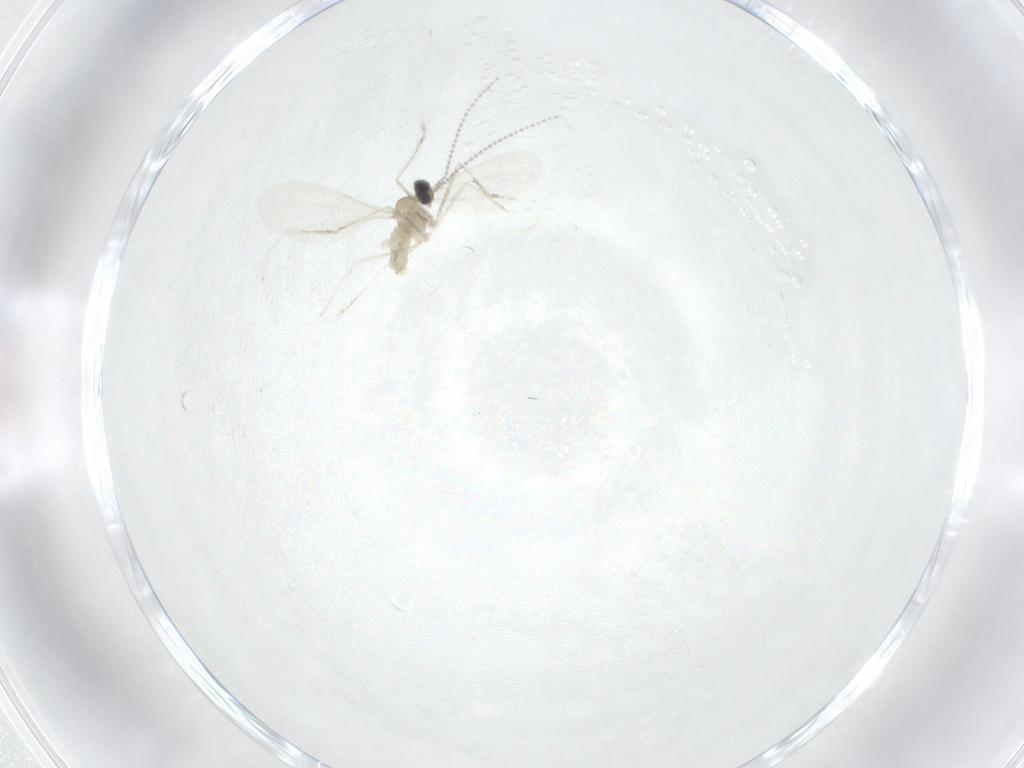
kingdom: Animalia
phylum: Arthropoda
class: Insecta
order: Diptera
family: Cecidomyiidae
